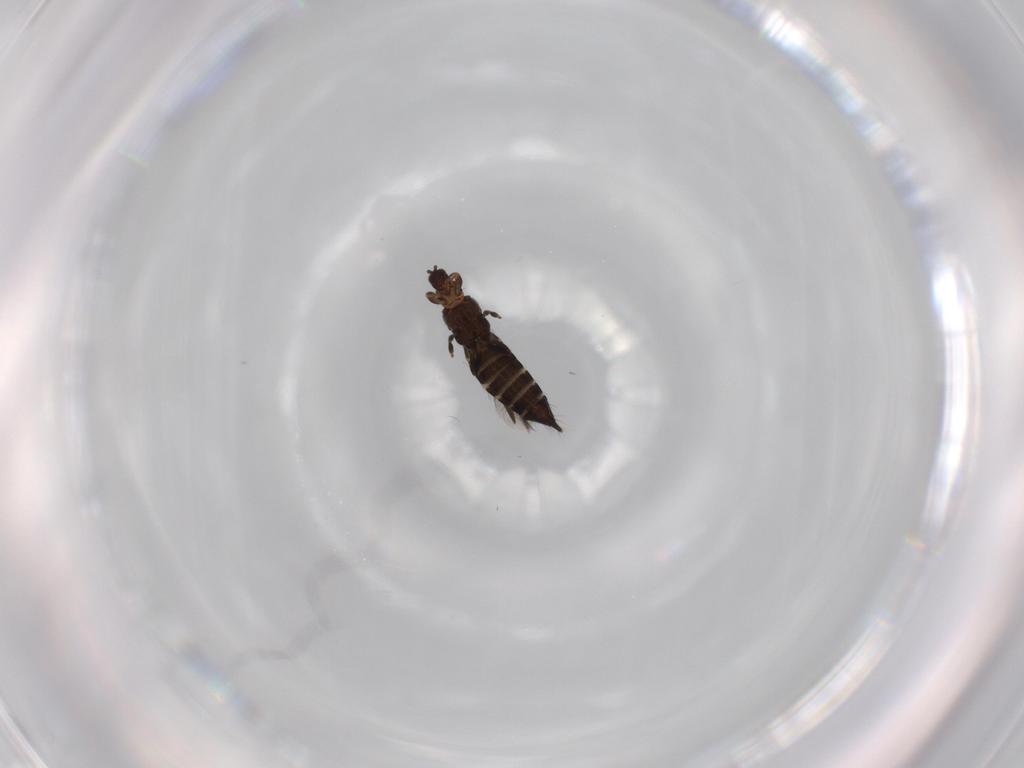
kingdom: Animalia
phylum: Arthropoda
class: Insecta
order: Thysanoptera
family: Thripidae
